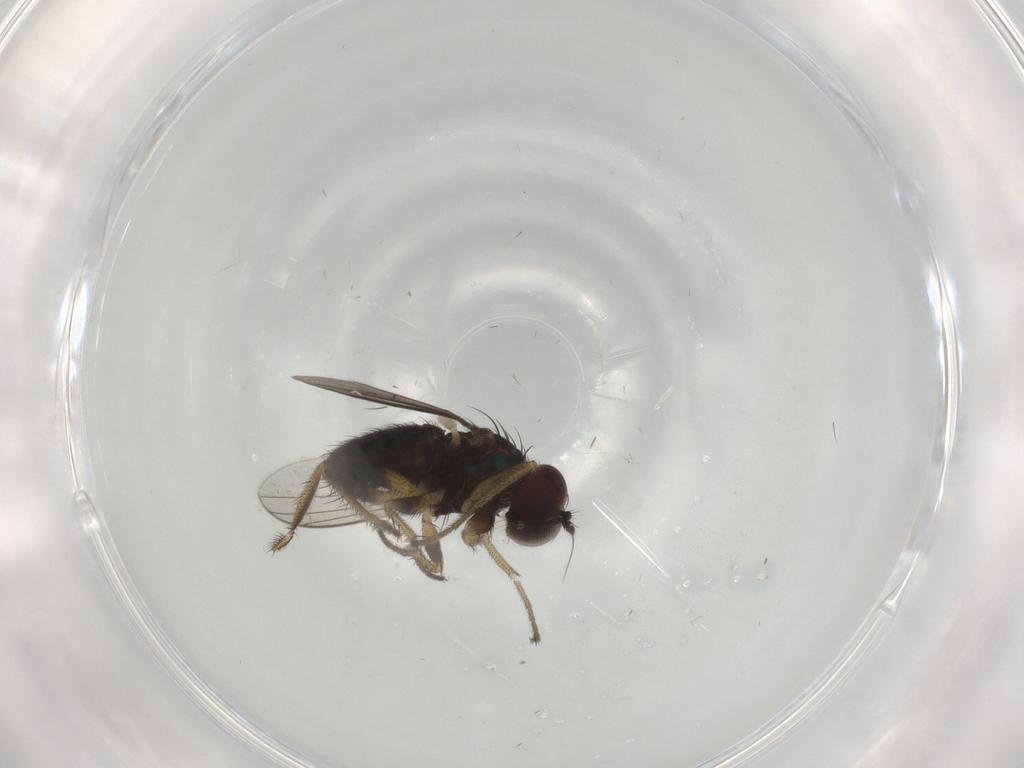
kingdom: Animalia
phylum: Arthropoda
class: Insecta
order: Diptera
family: Dolichopodidae
